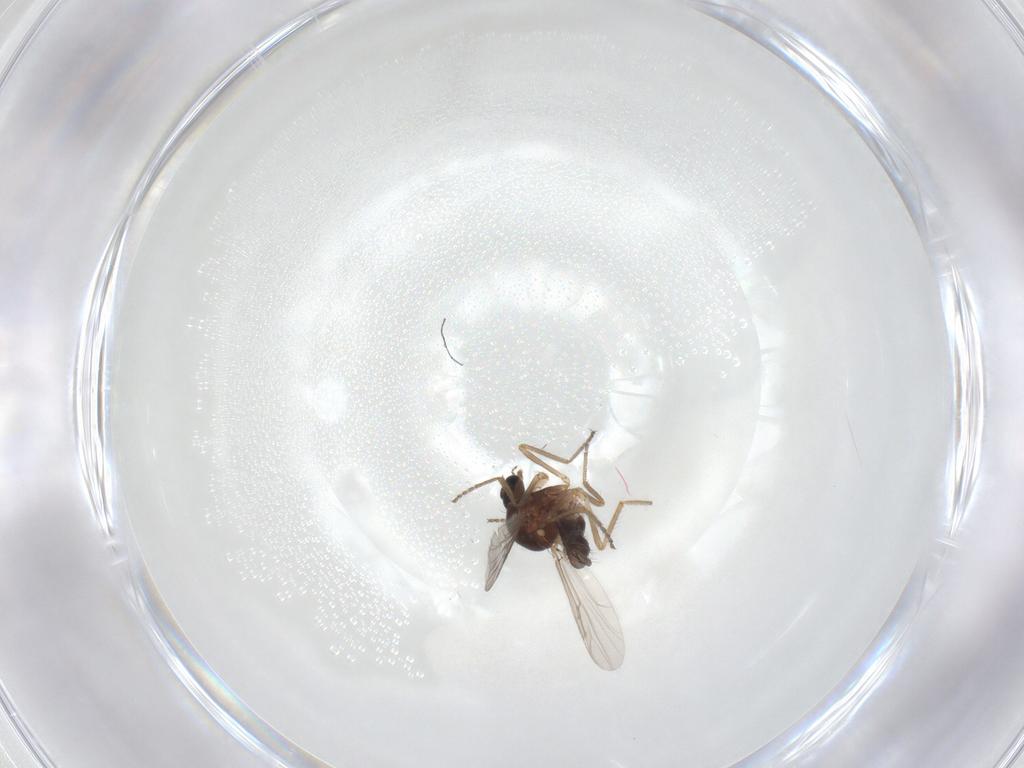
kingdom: Animalia
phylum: Arthropoda
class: Insecta
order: Diptera
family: Ceratopogonidae
